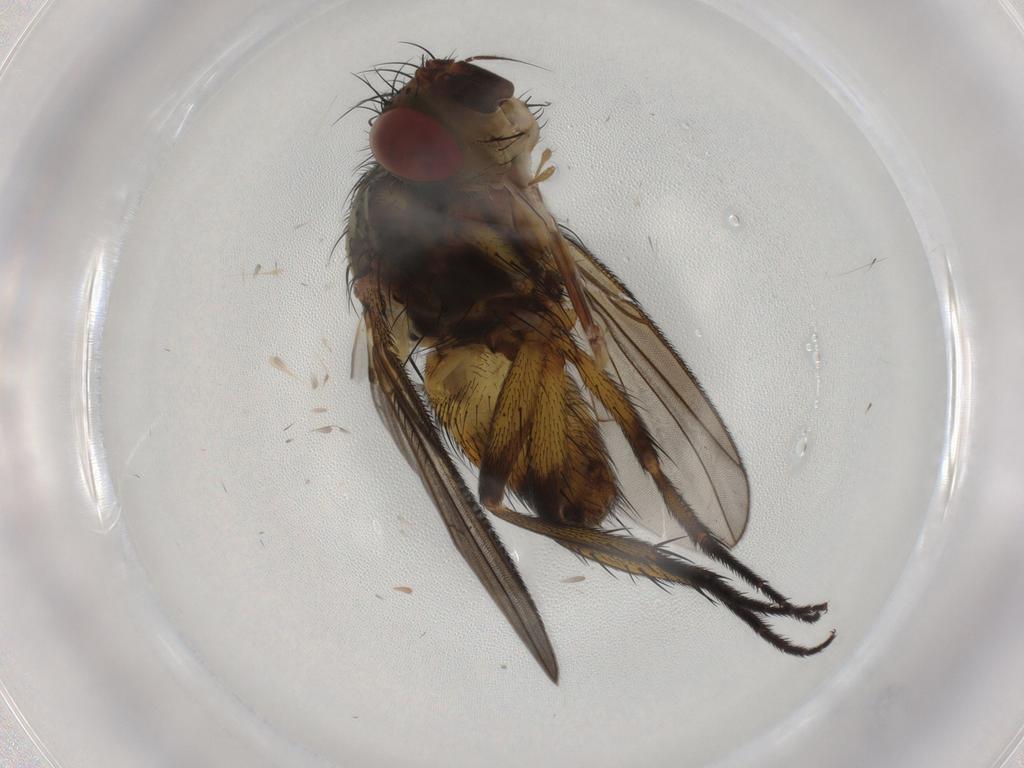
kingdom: Animalia
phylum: Arthropoda
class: Insecta
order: Diptera
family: Tachinidae
